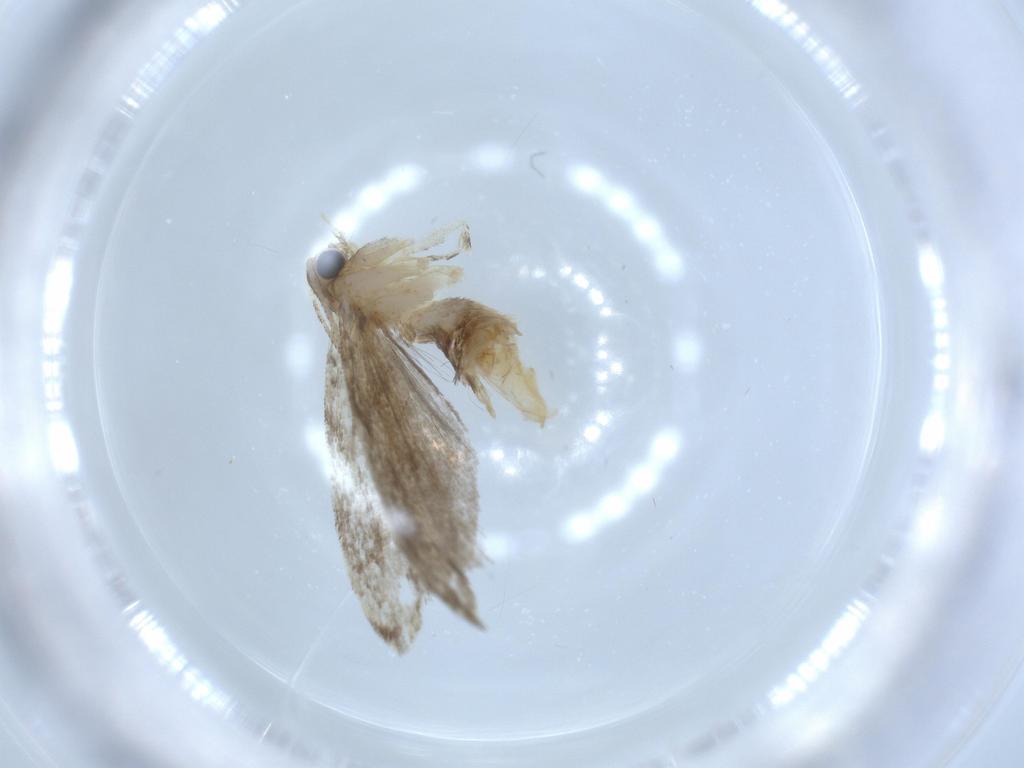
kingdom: Animalia
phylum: Arthropoda
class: Insecta
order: Lepidoptera
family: Tineidae
